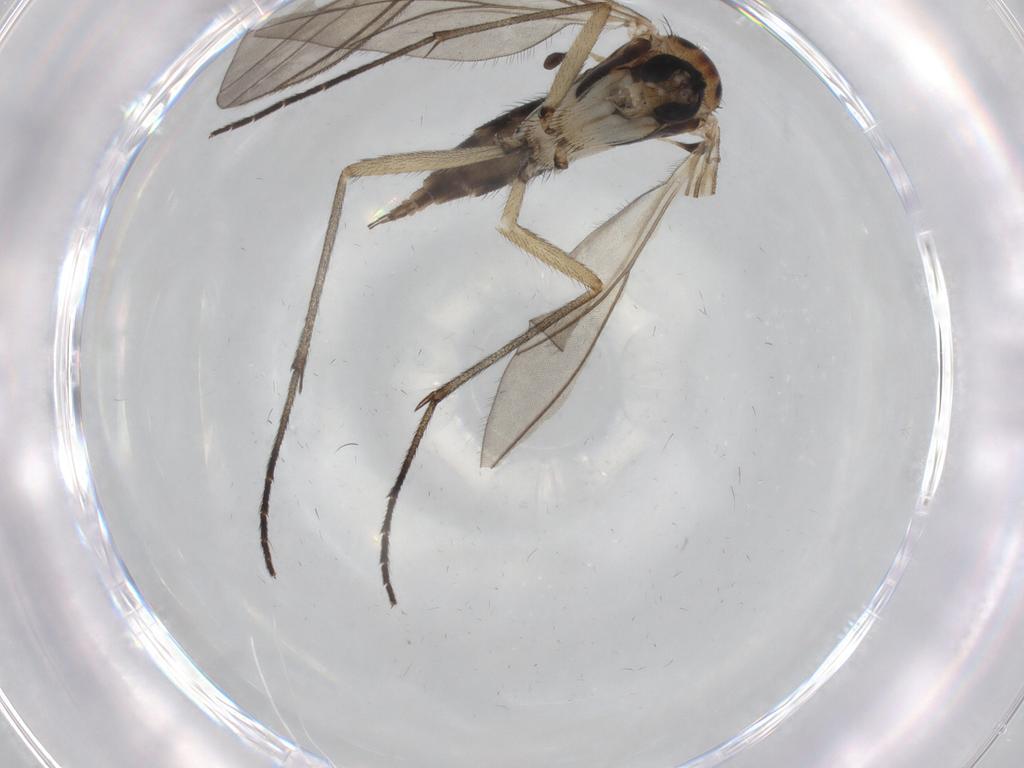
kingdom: Animalia
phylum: Arthropoda
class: Insecta
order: Diptera
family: Sciaridae
